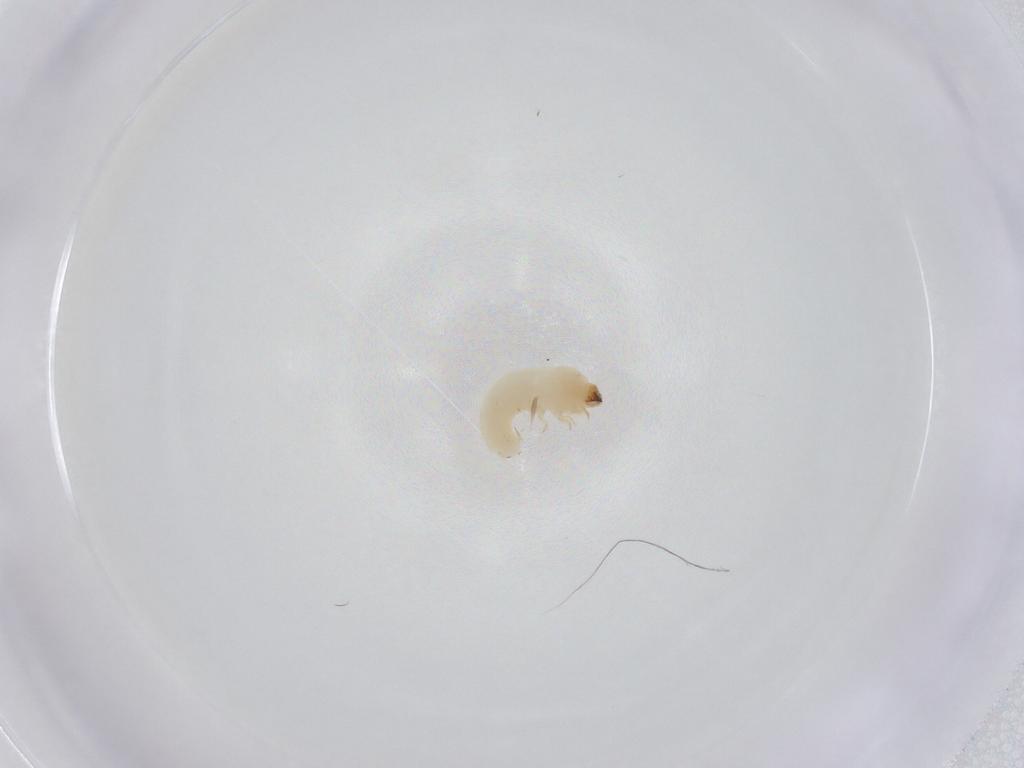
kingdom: Animalia
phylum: Arthropoda
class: Insecta
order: Coleoptera
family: Bostrichidae
